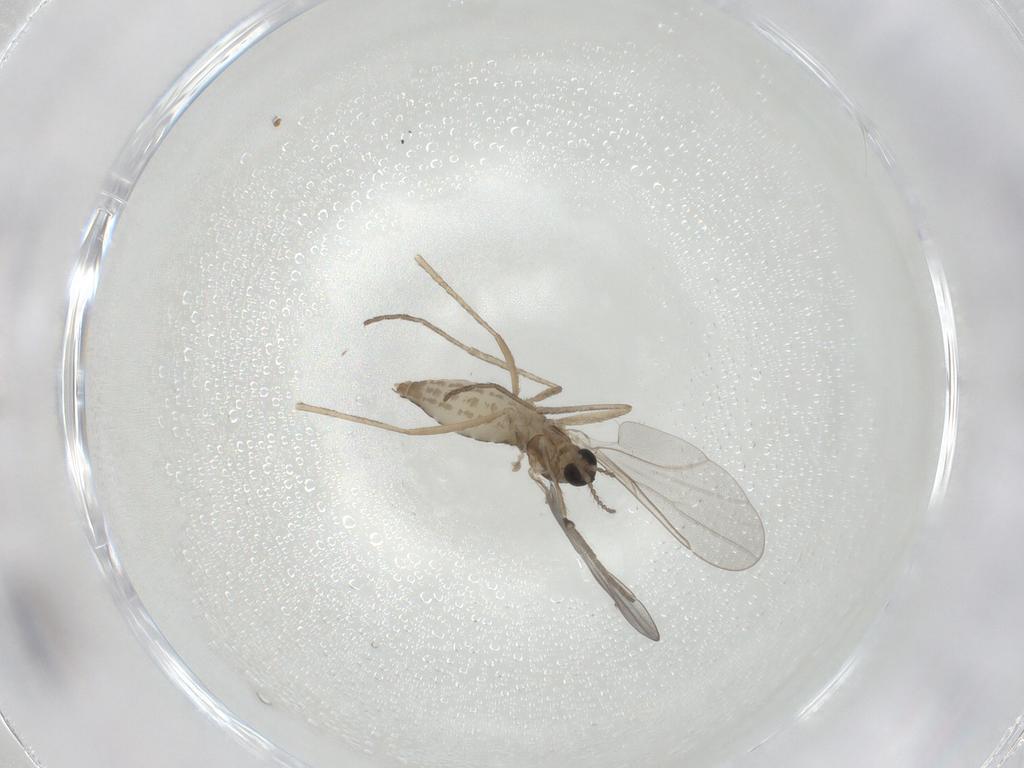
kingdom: Animalia
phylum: Arthropoda
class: Insecta
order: Diptera
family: Cecidomyiidae
